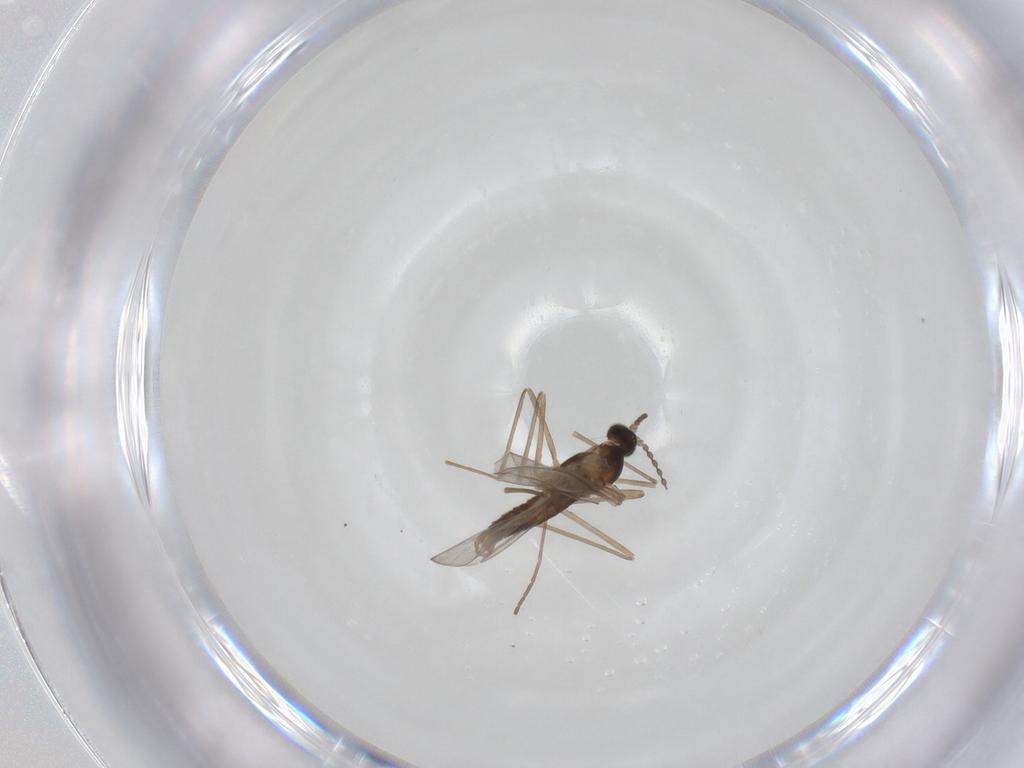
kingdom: Animalia
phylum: Arthropoda
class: Insecta
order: Diptera
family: Cecidomyiidae
